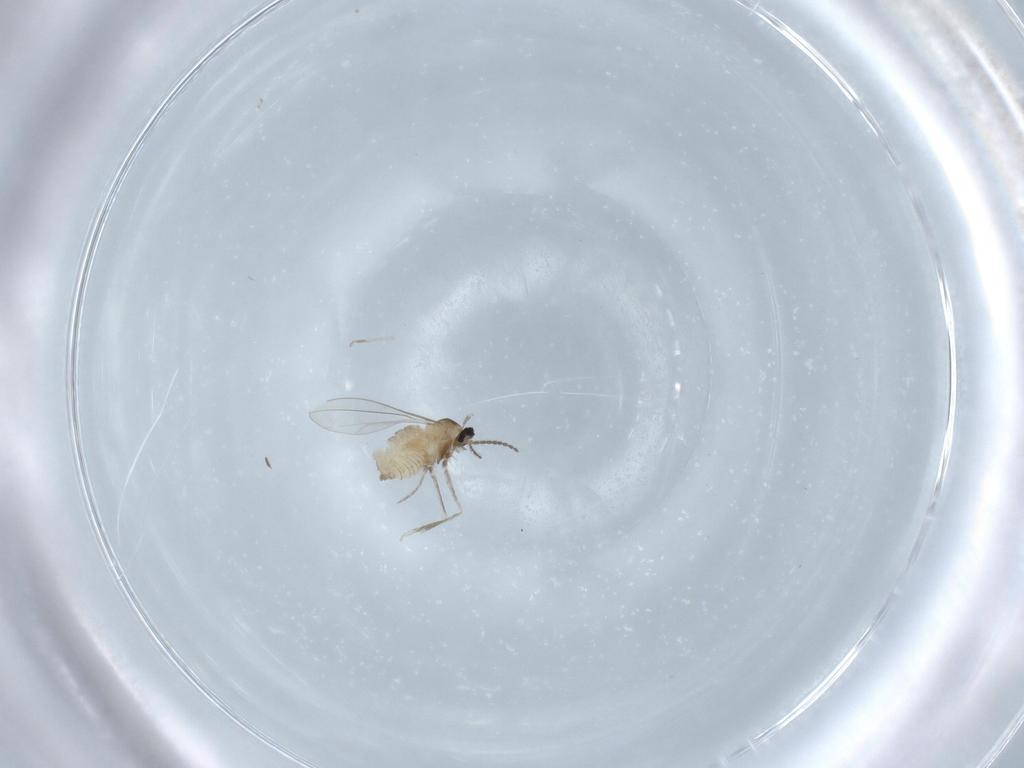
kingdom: Animalia
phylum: Arthropoda
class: Insecta
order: Diptera
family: Cecidomyiidae
